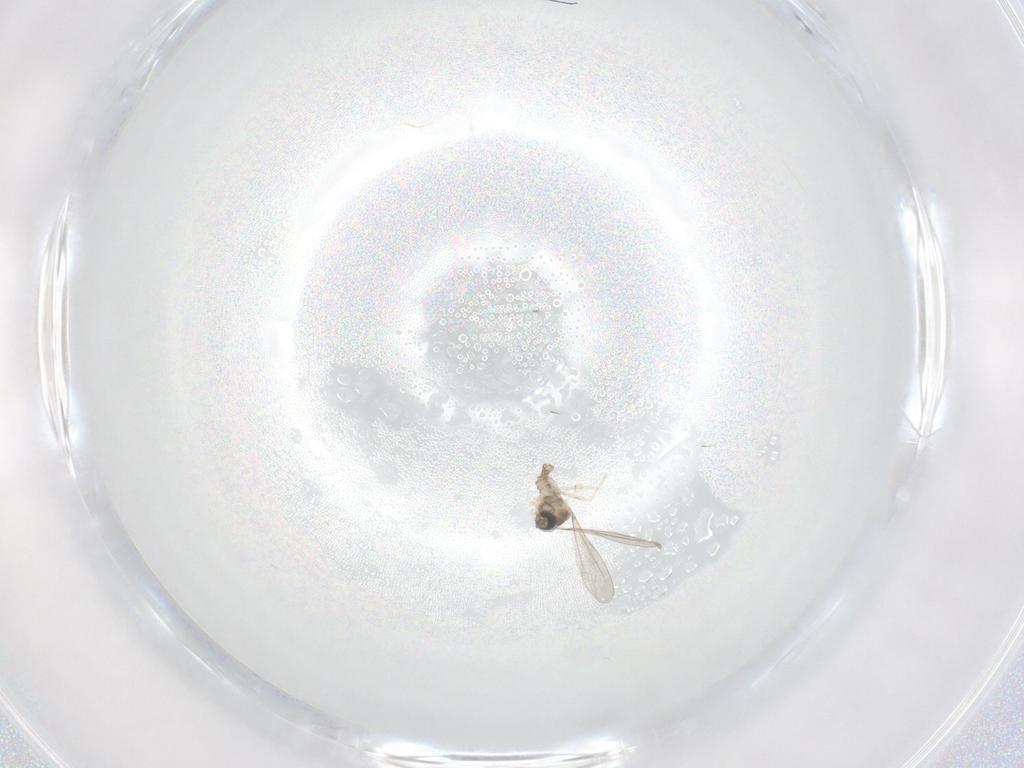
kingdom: Animalia
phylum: Arthropoda
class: Insecta
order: Diptera
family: Cecidomyiidae
